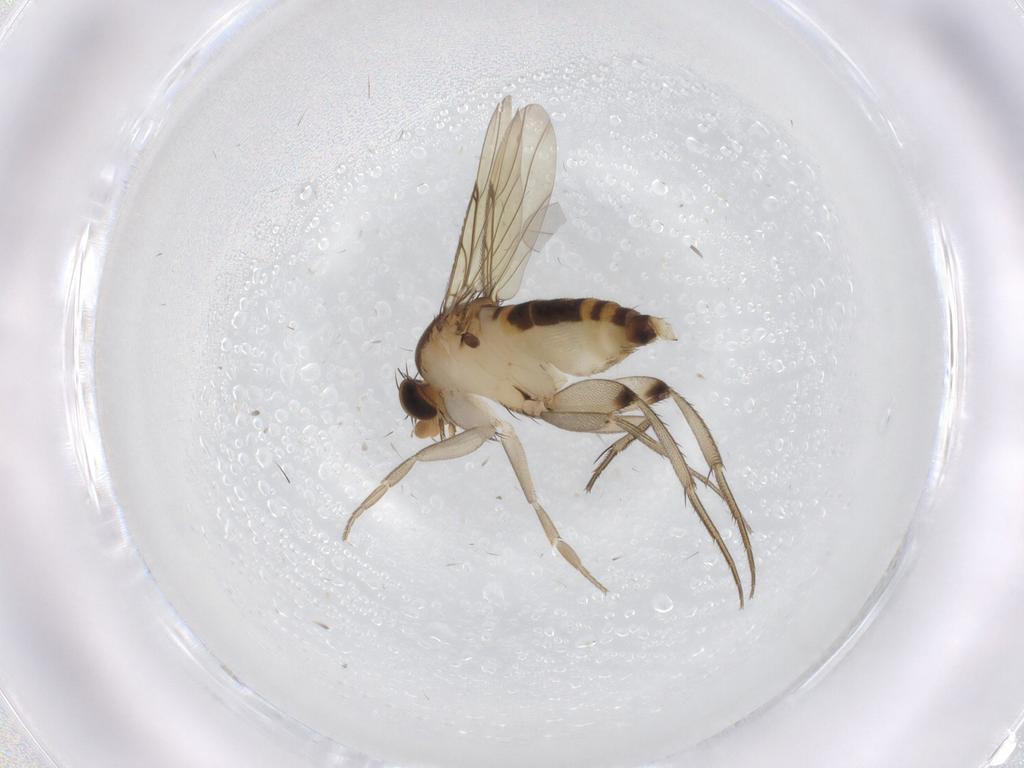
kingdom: Animalia
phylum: Arthropoda
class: Insecta
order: Diptera
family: Phoridae
